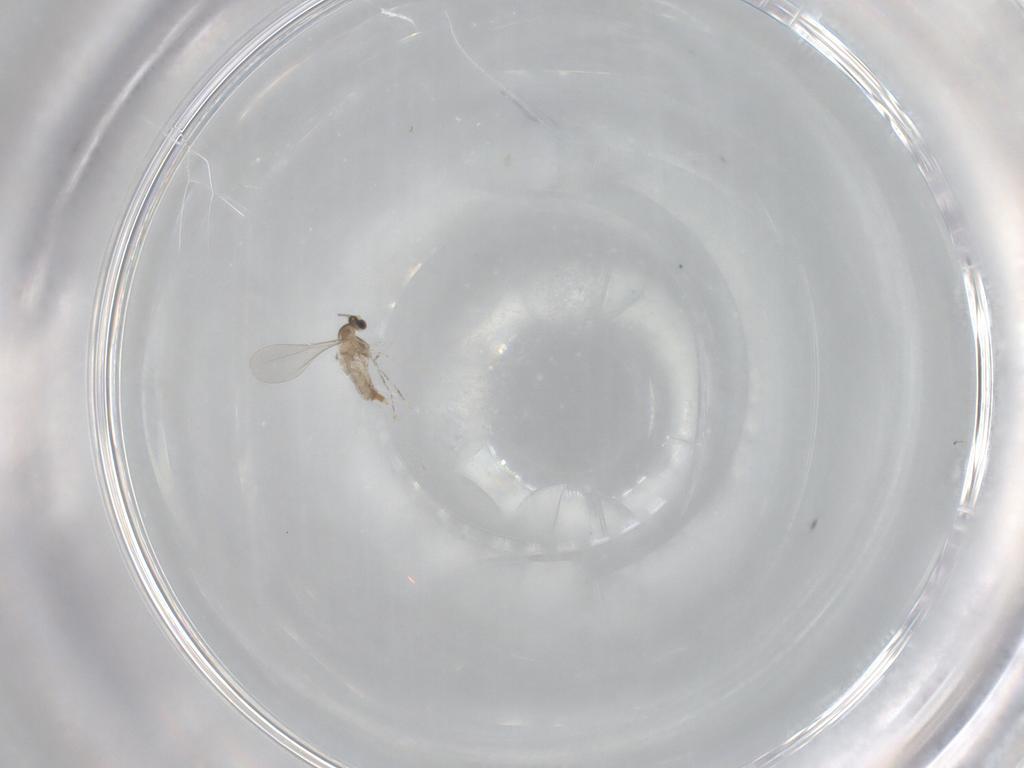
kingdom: Animalia
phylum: Arthropoda
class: Insecta
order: Diptera
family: Cecidomyiidae
